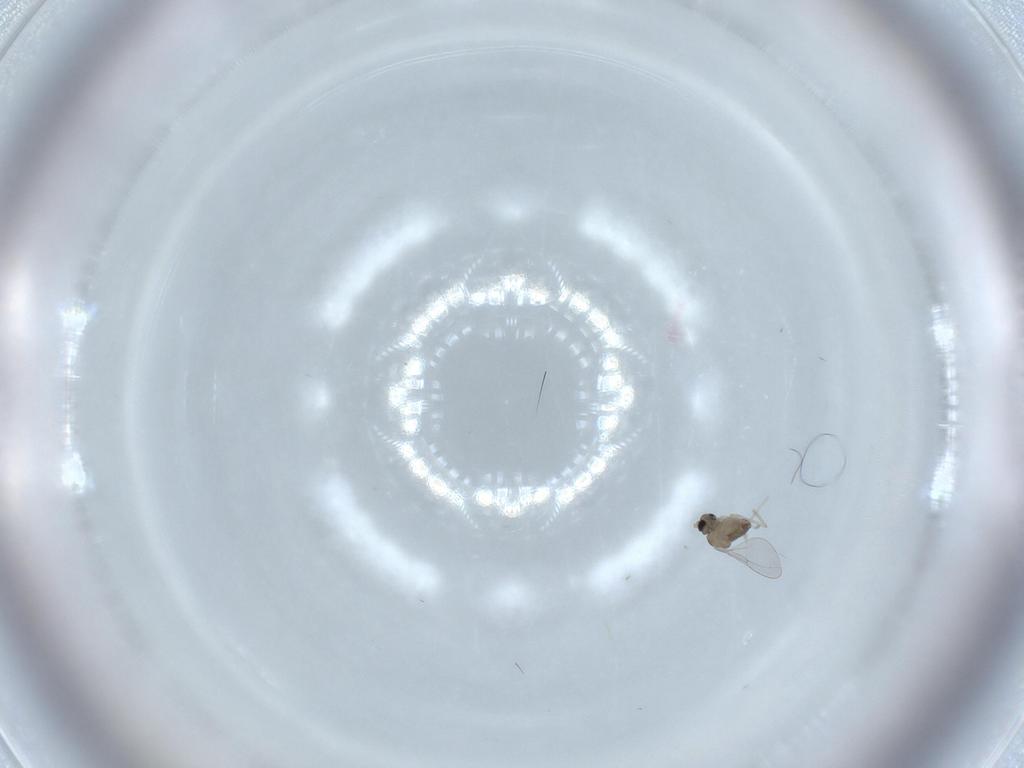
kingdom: Animalia
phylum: Arthropoda
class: Insecta
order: Diptera
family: Cecidomyiidae
